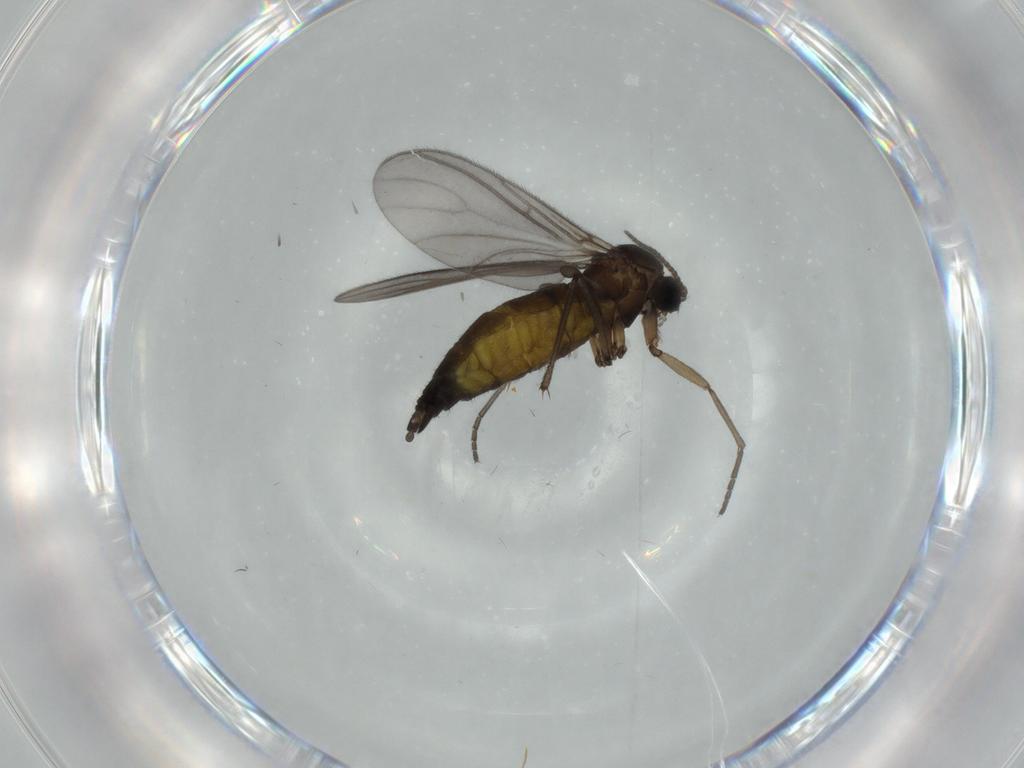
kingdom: Animalia
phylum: Arthropoda
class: Insecta
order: Diptera
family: Sciaridae
